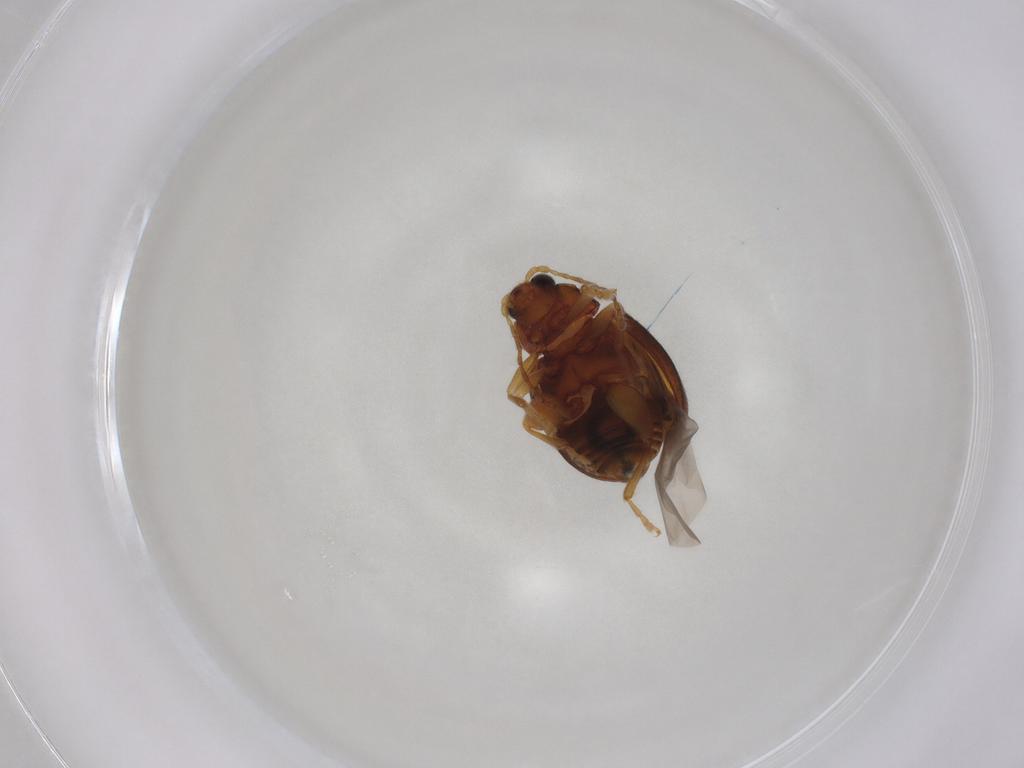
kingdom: Animalia
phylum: Arthropoda
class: Insecta
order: Coleoptera
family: Chrysomelidae
